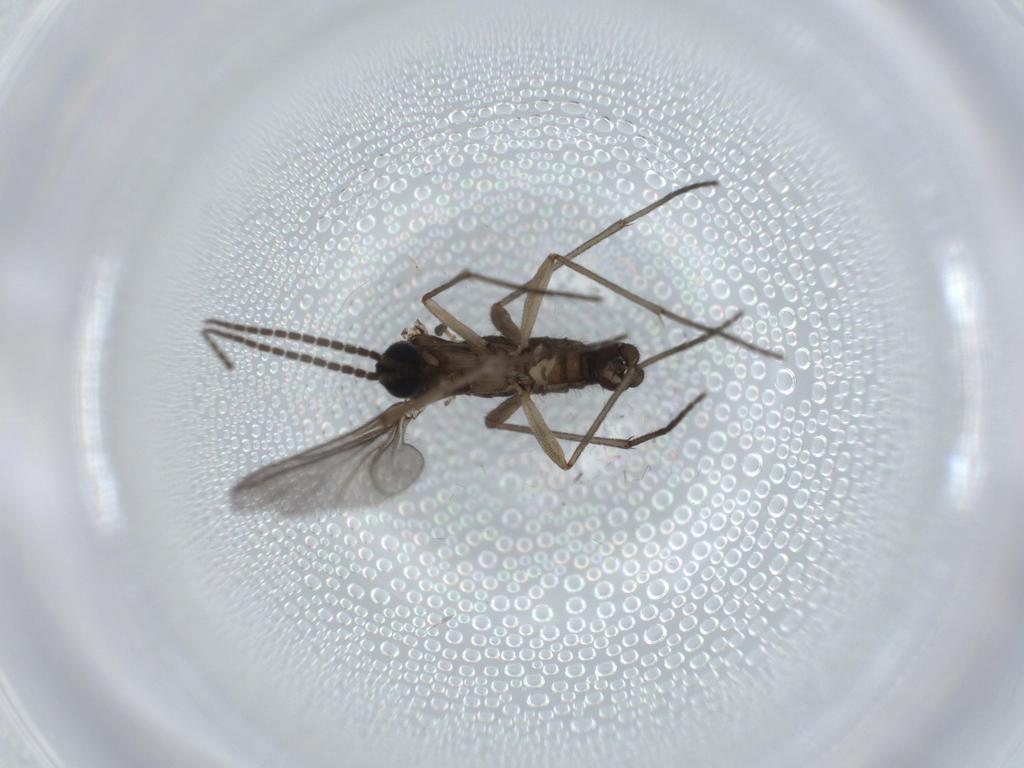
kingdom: Animalia
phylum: Arthropoda
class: Insecta
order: Diptera
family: Sciaridae
